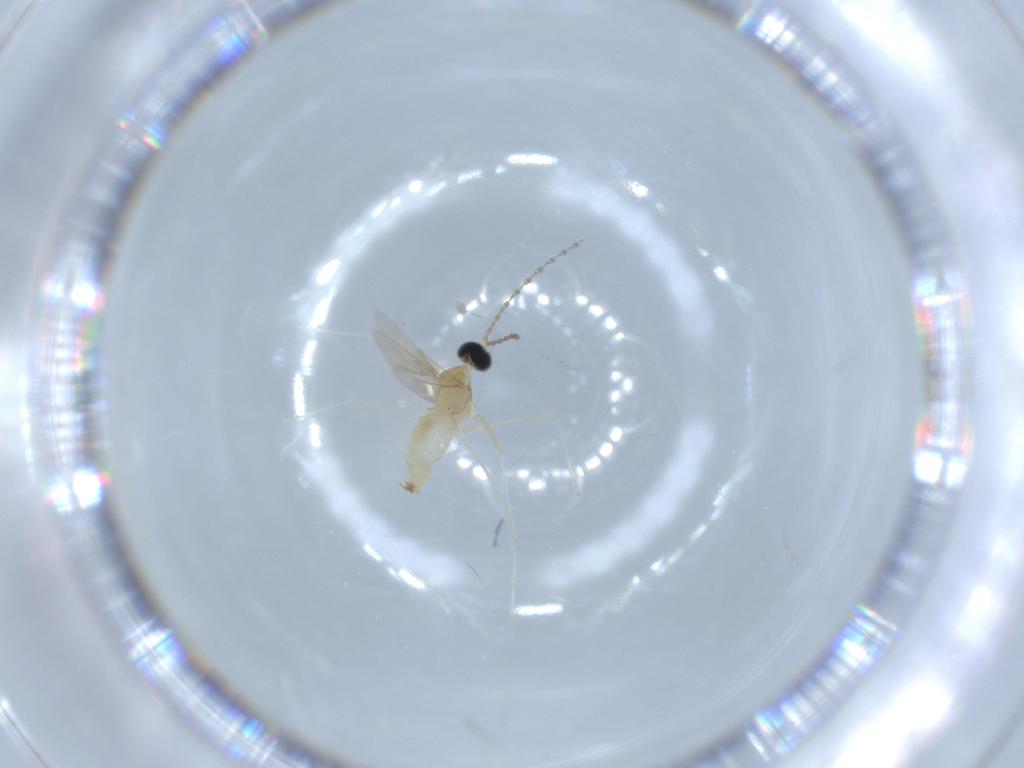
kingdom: Animalia
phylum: Arthropoda
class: Insecta
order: Diptera
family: Cecidomyiidae
